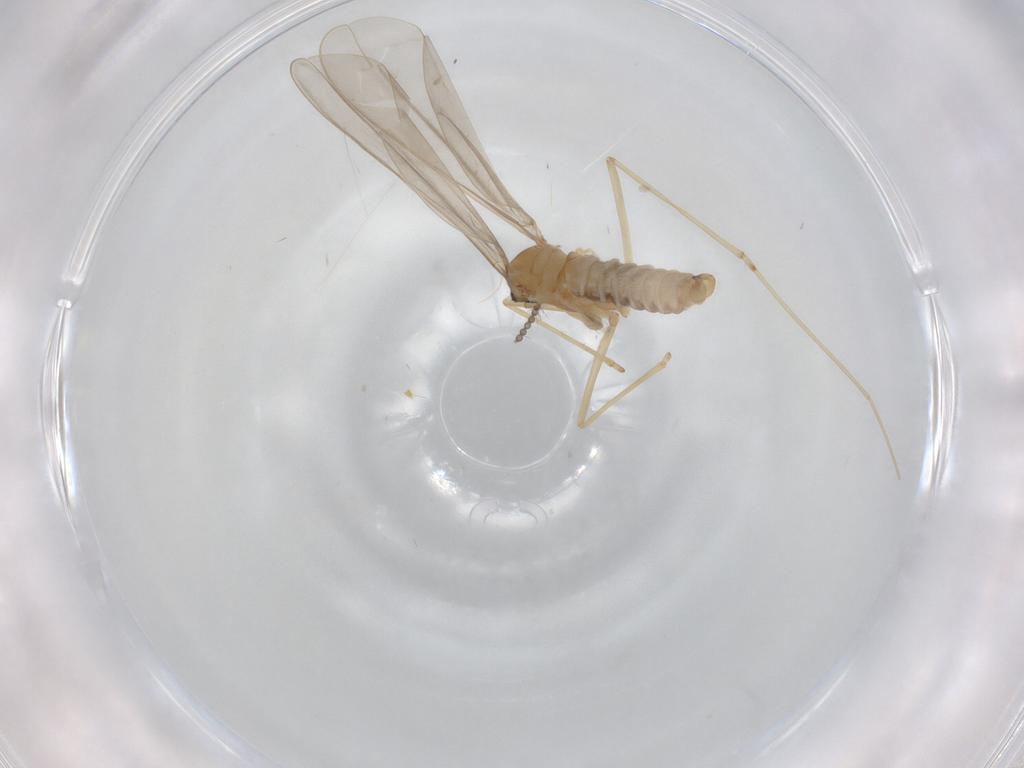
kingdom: Animalia
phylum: Arthropoda
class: Insecta
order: Diptera
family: Cecidomyiidae
